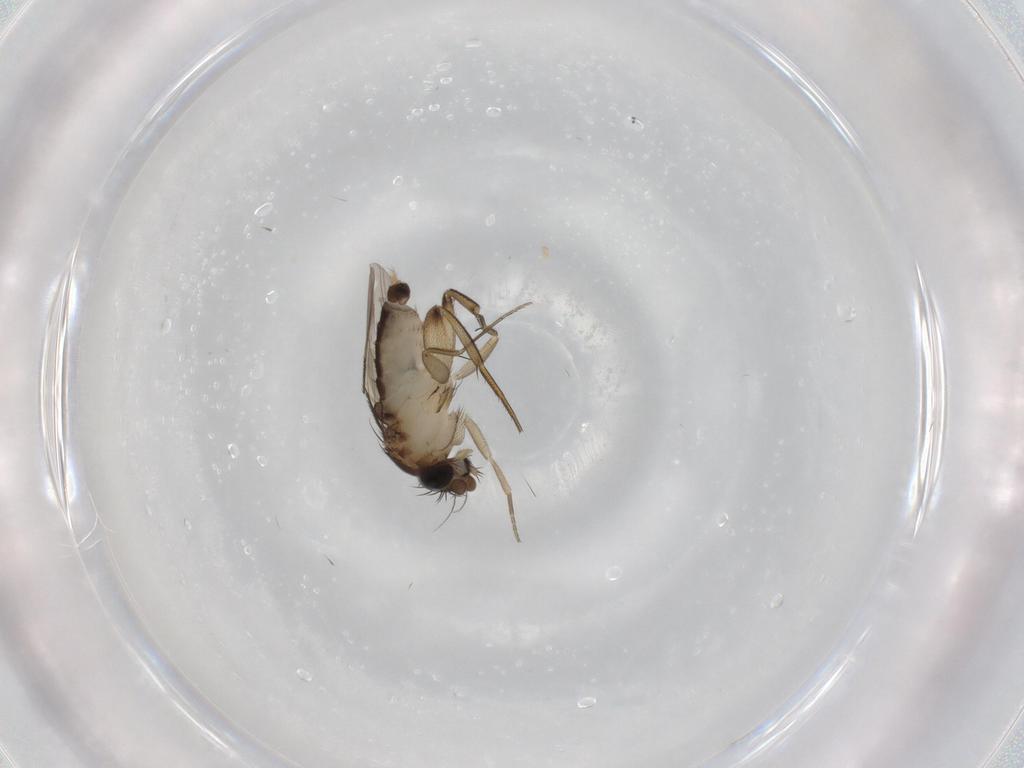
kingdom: Animalia
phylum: Arthropoda
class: Insecta
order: Diptera
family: Phoridae
